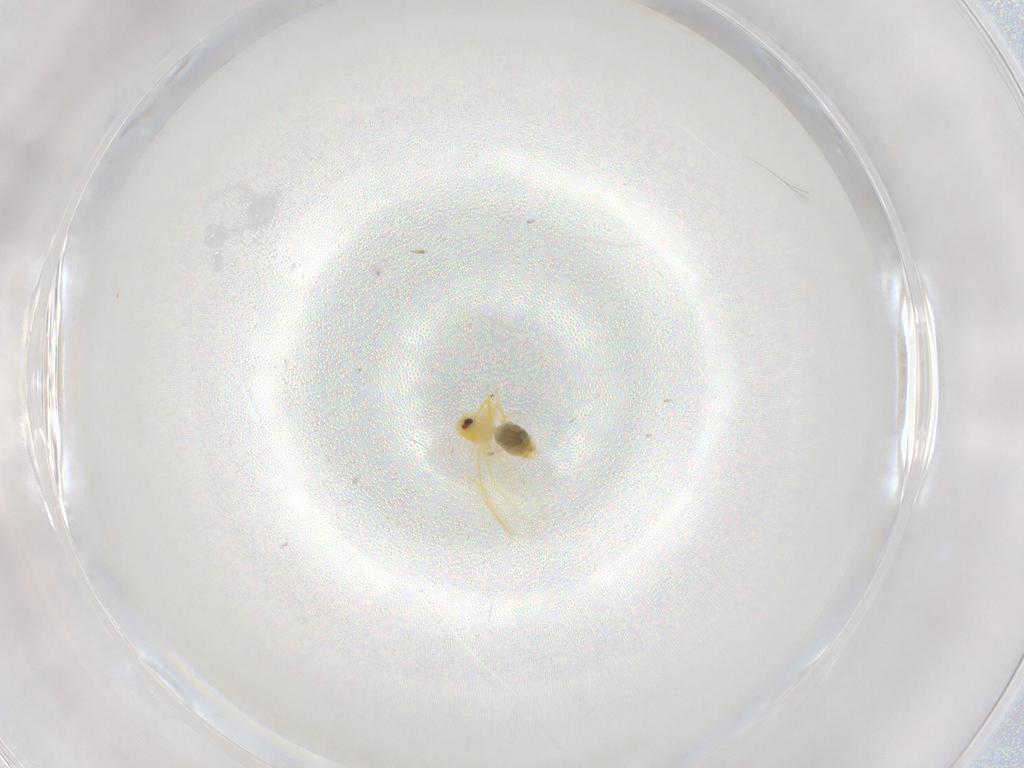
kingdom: Animalia
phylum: Arthropoda
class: Insecta
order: Hemiptera
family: Aleyrodidae
